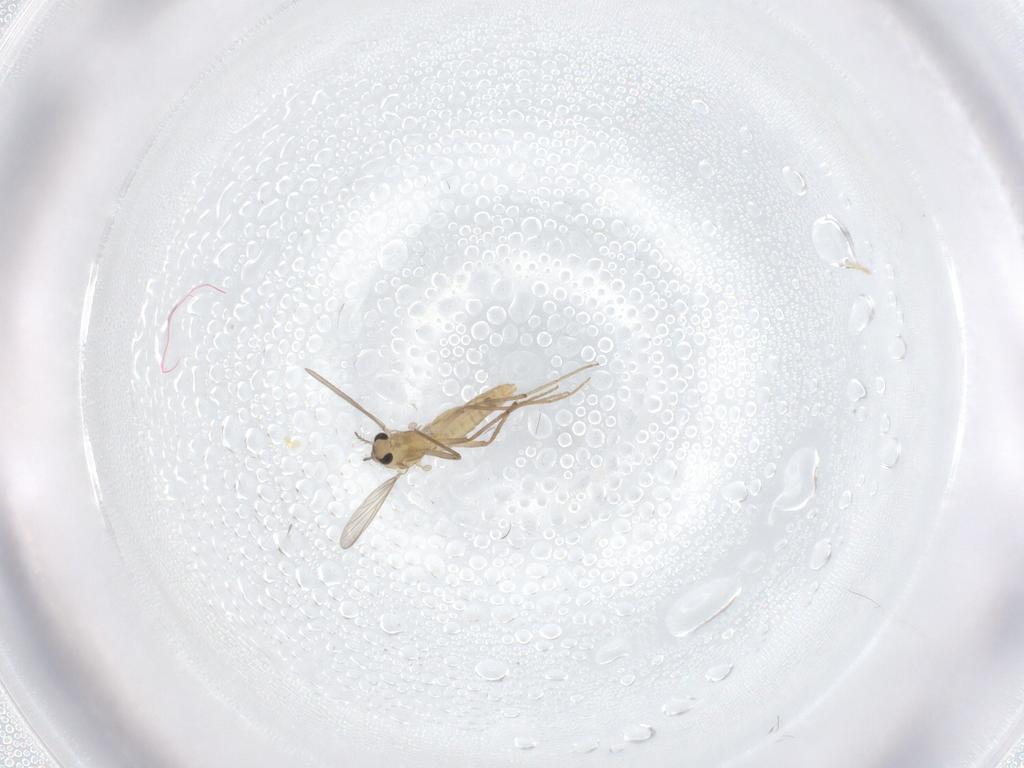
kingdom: Animalia
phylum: Arthropoda
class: Insecta
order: Diptera
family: Chironomidae
